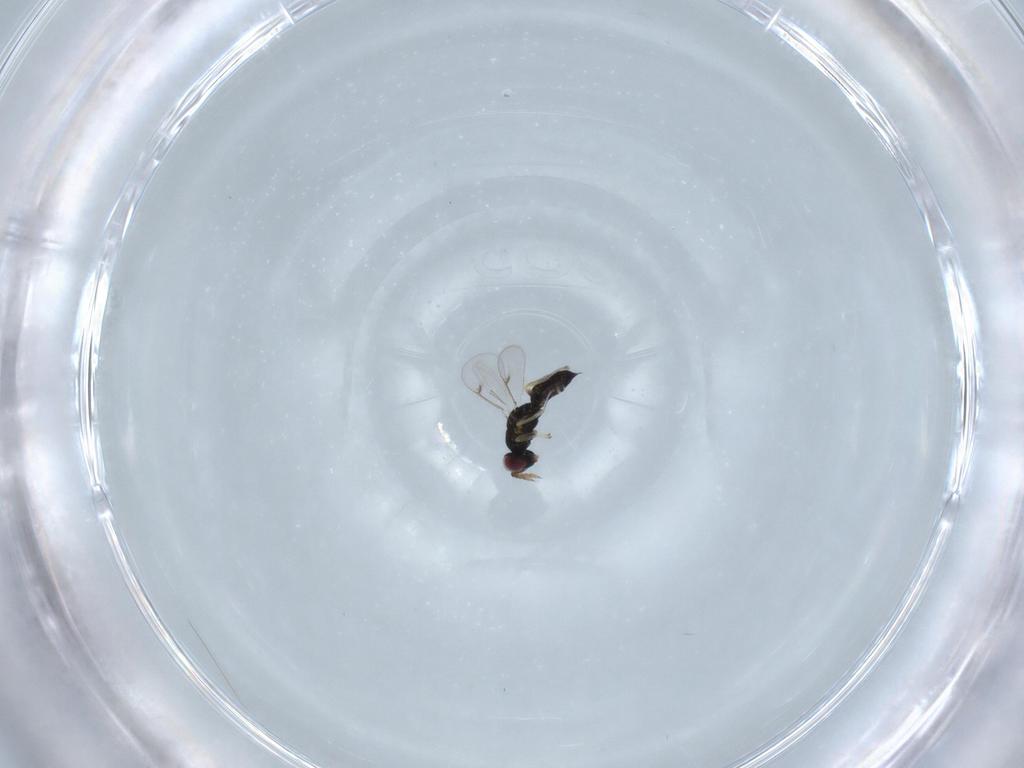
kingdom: Animalia
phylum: Arthropoda
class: Insecta
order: Hymenoptera
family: Eulophidae
